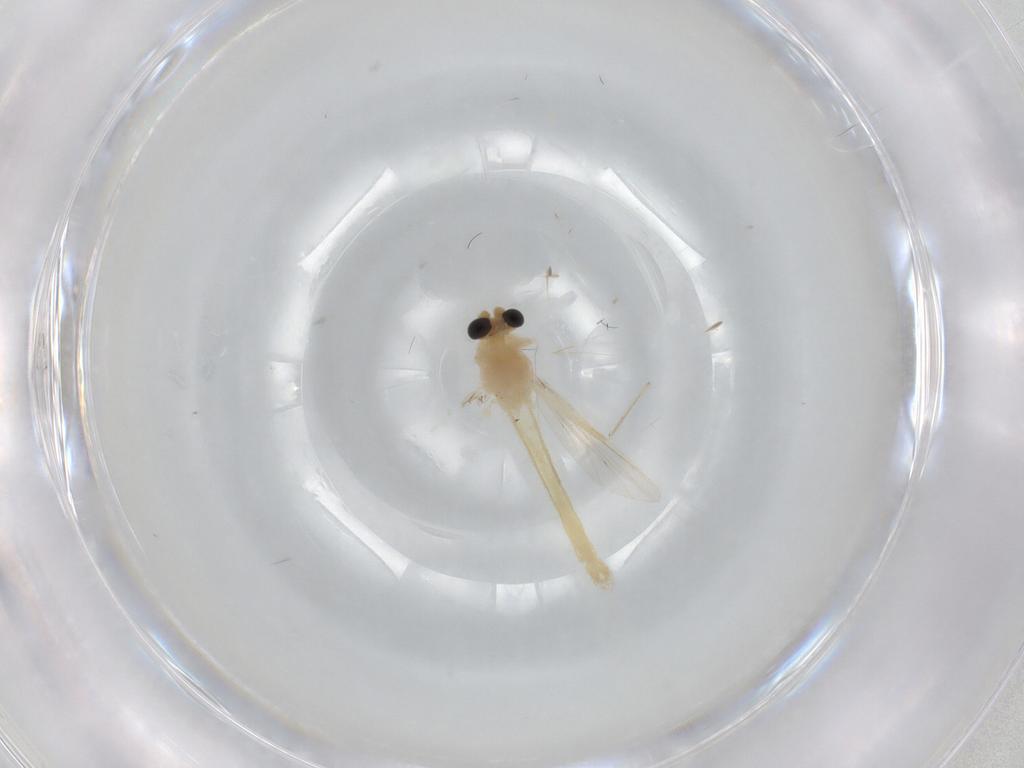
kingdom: Animalia
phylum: Arthropoda
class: Insecta
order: Diptera
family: Chironomidae
